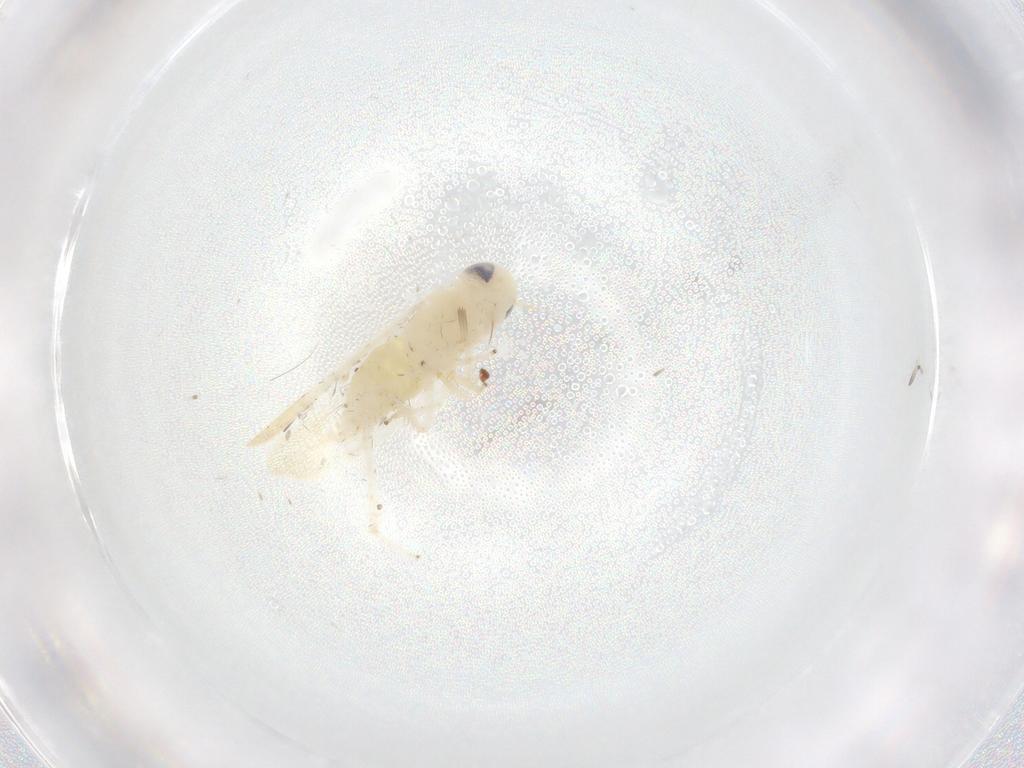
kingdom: Animalia
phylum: Arthropoda
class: Insecta
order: Hemiptera
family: Cicadellidae
